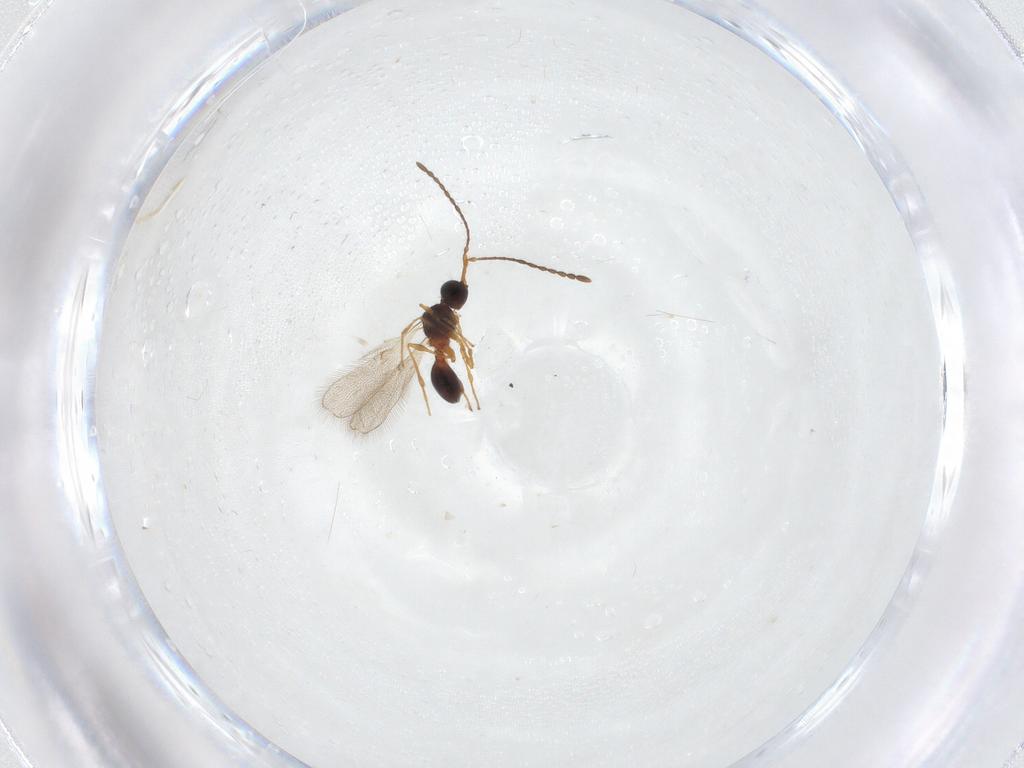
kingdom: Animalia
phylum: Arthropoda
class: Insecta
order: Hymenoptera
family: Diapriidae
